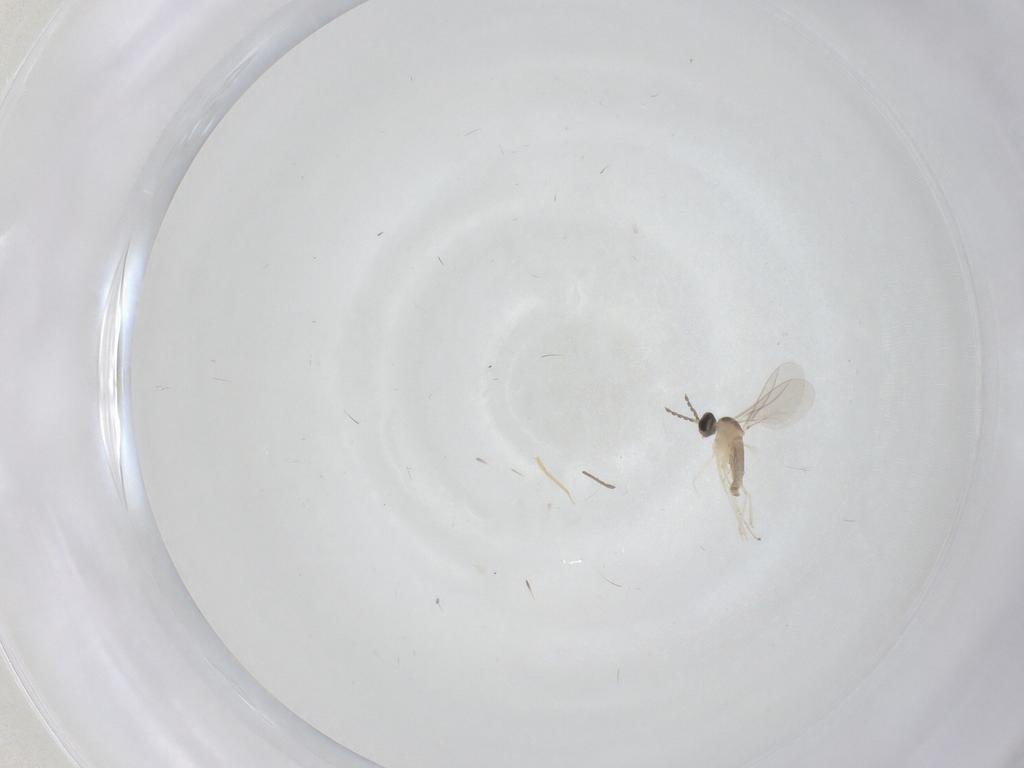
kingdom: Animalia
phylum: Arthropoda
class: Insecta
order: Diptera
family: Cecidomyiidae
